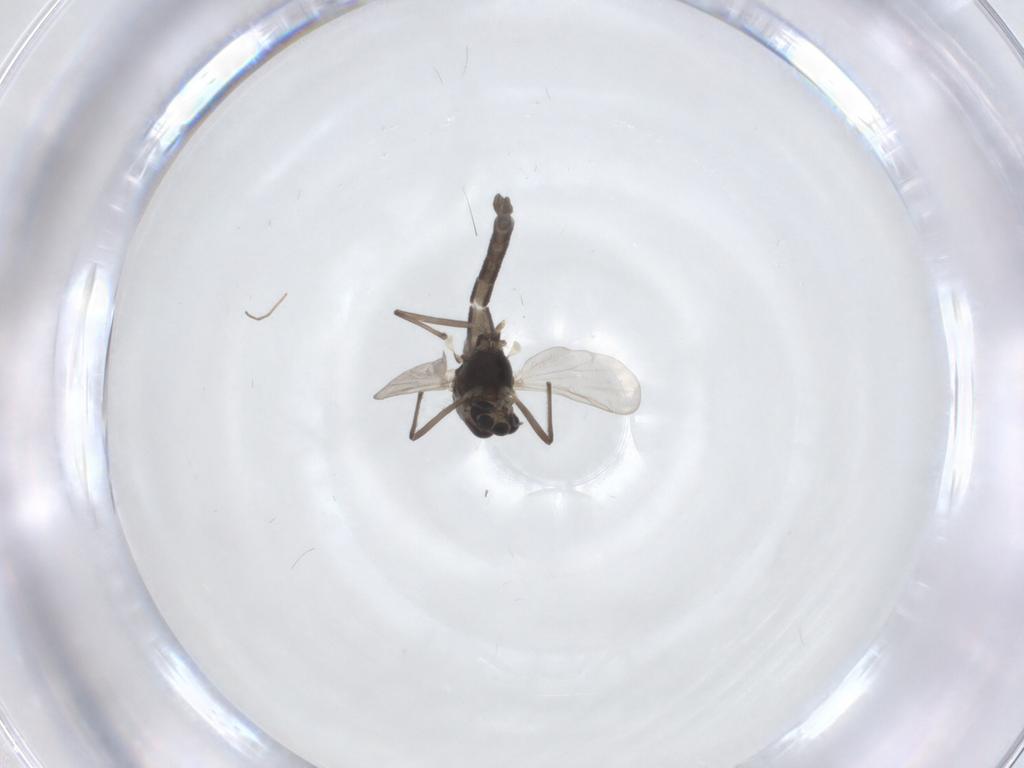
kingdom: Animalia
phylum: Arthropoda
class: Insecta
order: Diptera
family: Chironomidae
